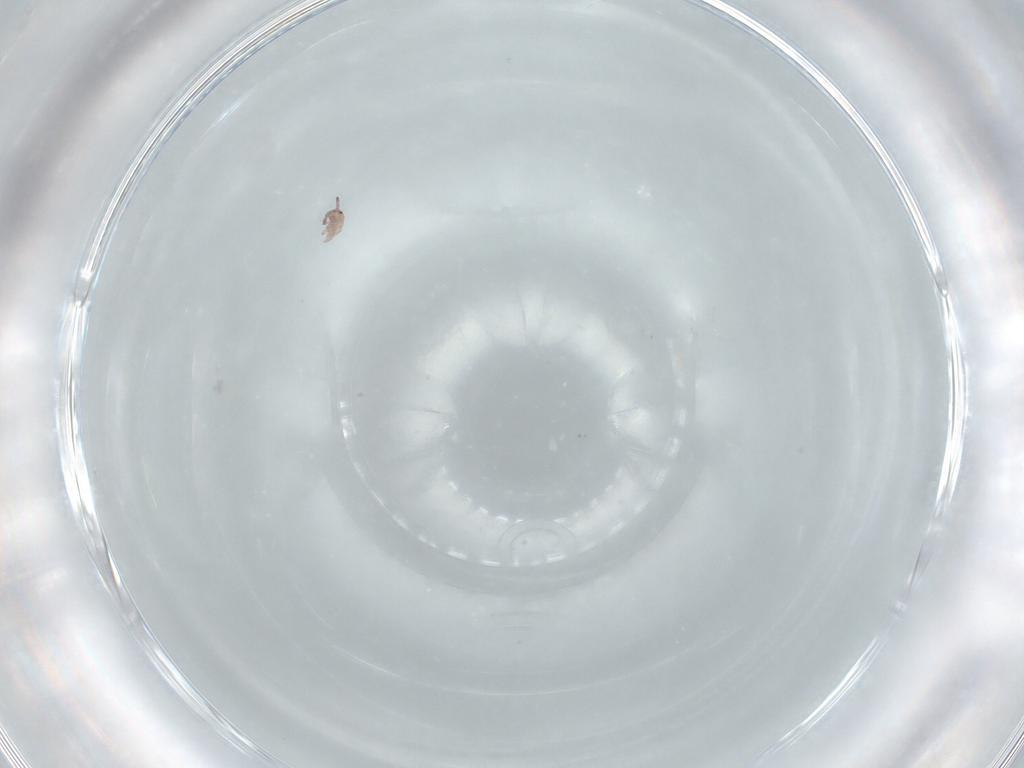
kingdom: Animalia
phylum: Arthropoda
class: Collembola
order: Entomobryomorpha
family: Isotomidae
